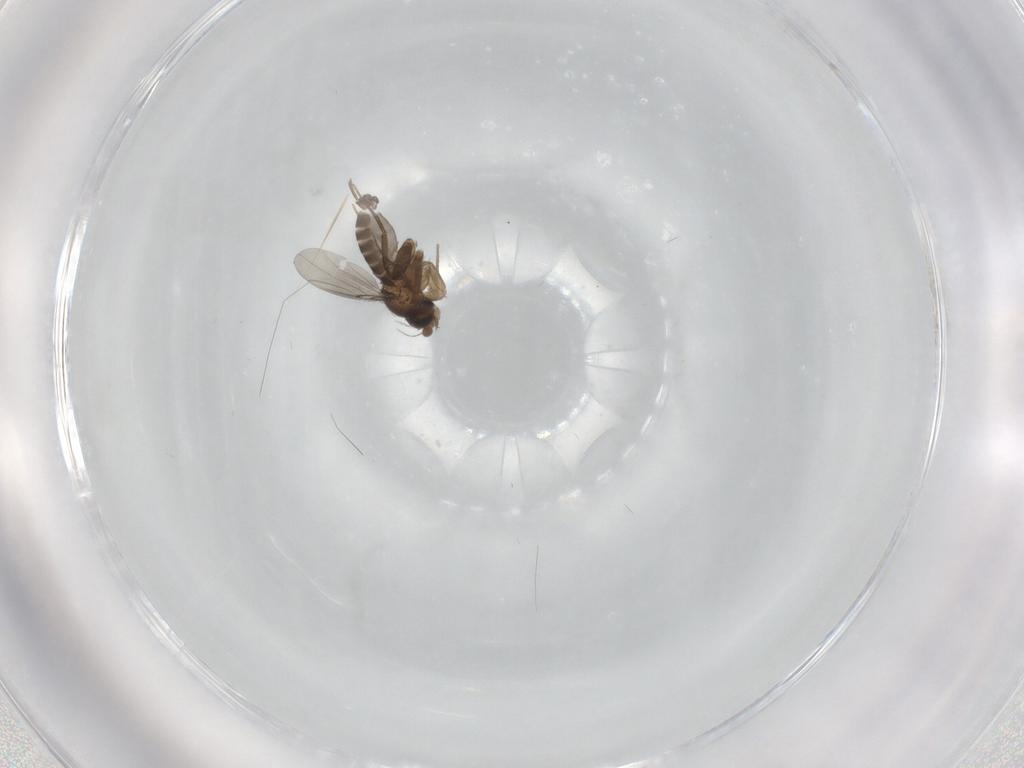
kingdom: Animalia
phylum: Arthropoda
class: Insecta
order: Diptera
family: Phoridae
